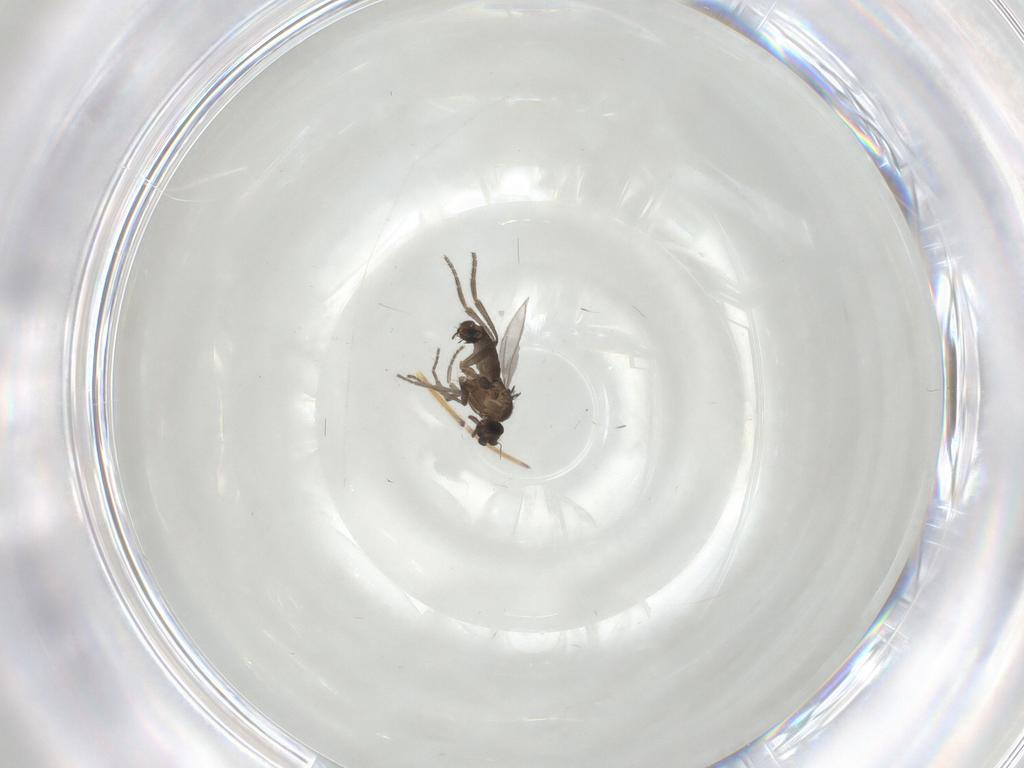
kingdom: Animalia
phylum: Arthropoda
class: Insecta
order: Diptera
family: Phoridae
